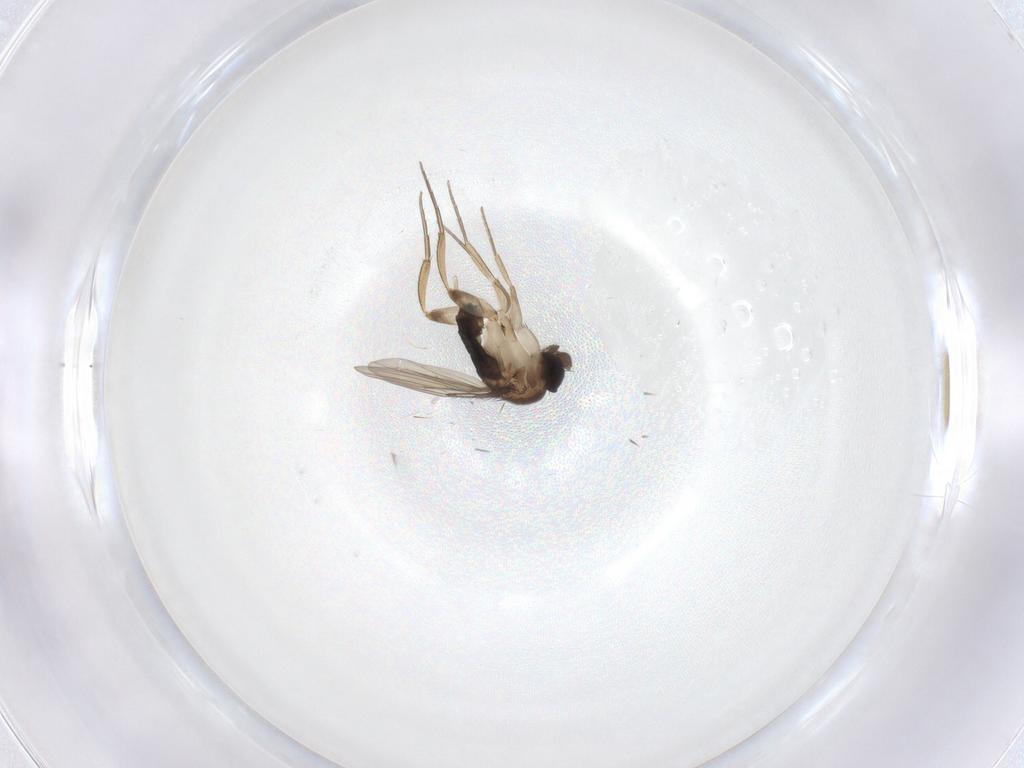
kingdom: Animalia
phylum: Arthropoda
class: Insecta
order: Diptera
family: Phoridae
